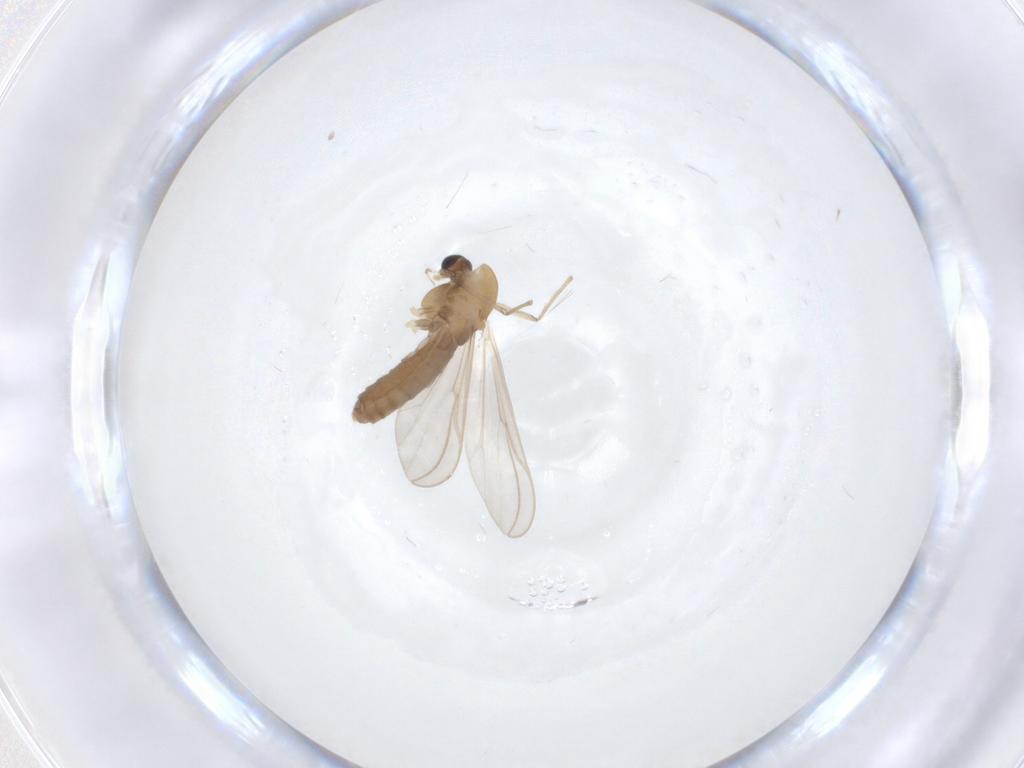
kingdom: Animalia
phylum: Arthropoda
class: Insecta
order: Diptera
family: Chironomidae
